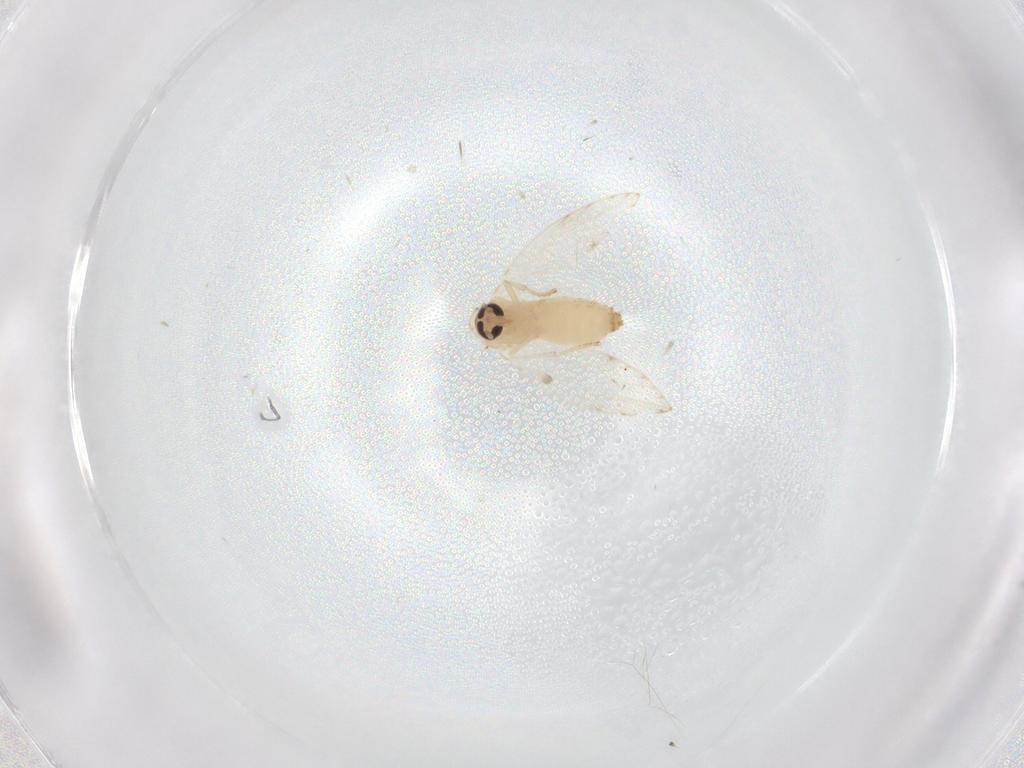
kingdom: Animalia
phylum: Arthropoda
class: Insecta
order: Diptera
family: Psychodidae
